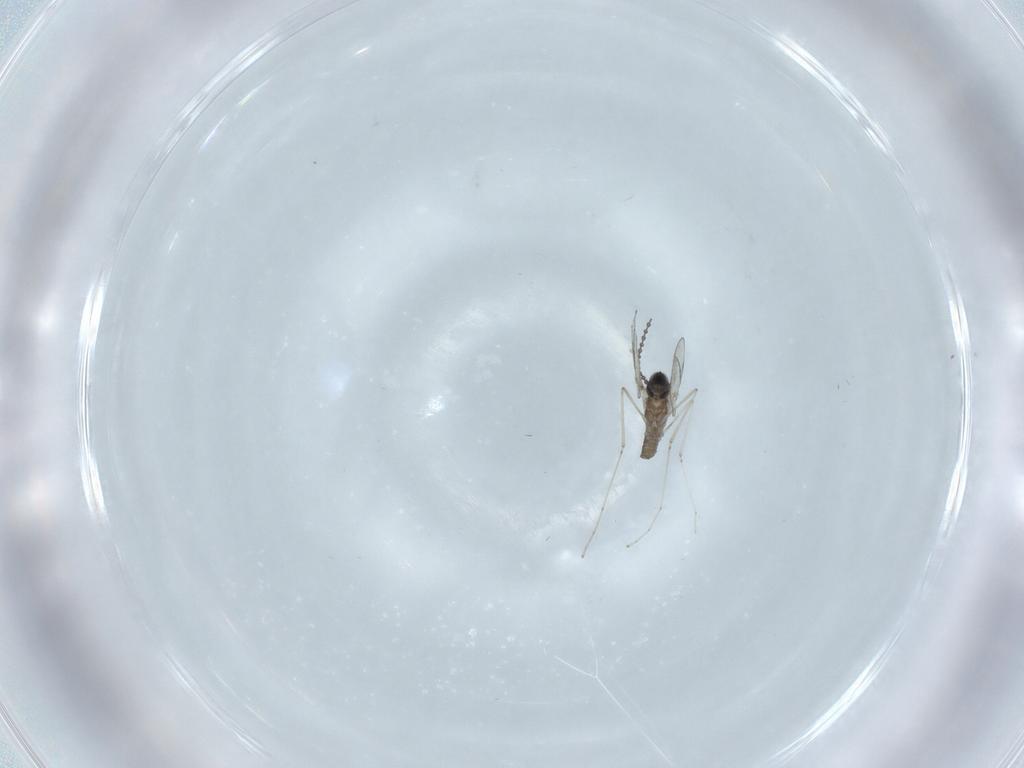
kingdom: Animalia
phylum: Arthropoda
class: Insecta
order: Diptera
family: Cecidomyiidae
